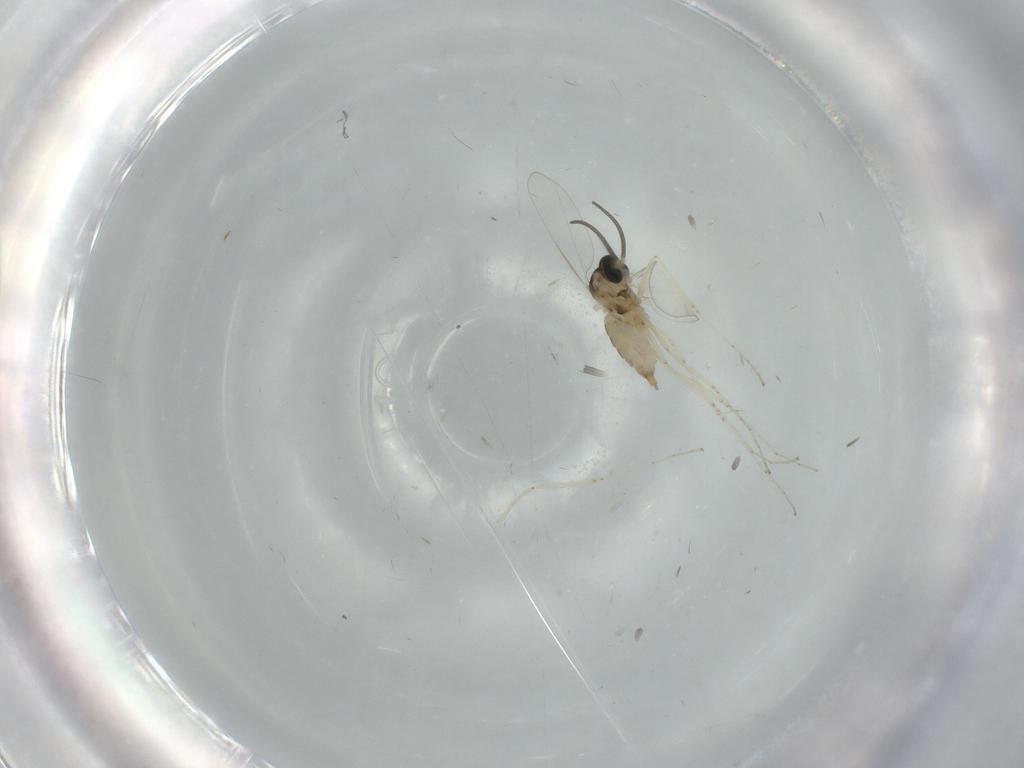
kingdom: Animalia
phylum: Arthropoda
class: Insecta
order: Diptera
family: Cecidomyiidae
